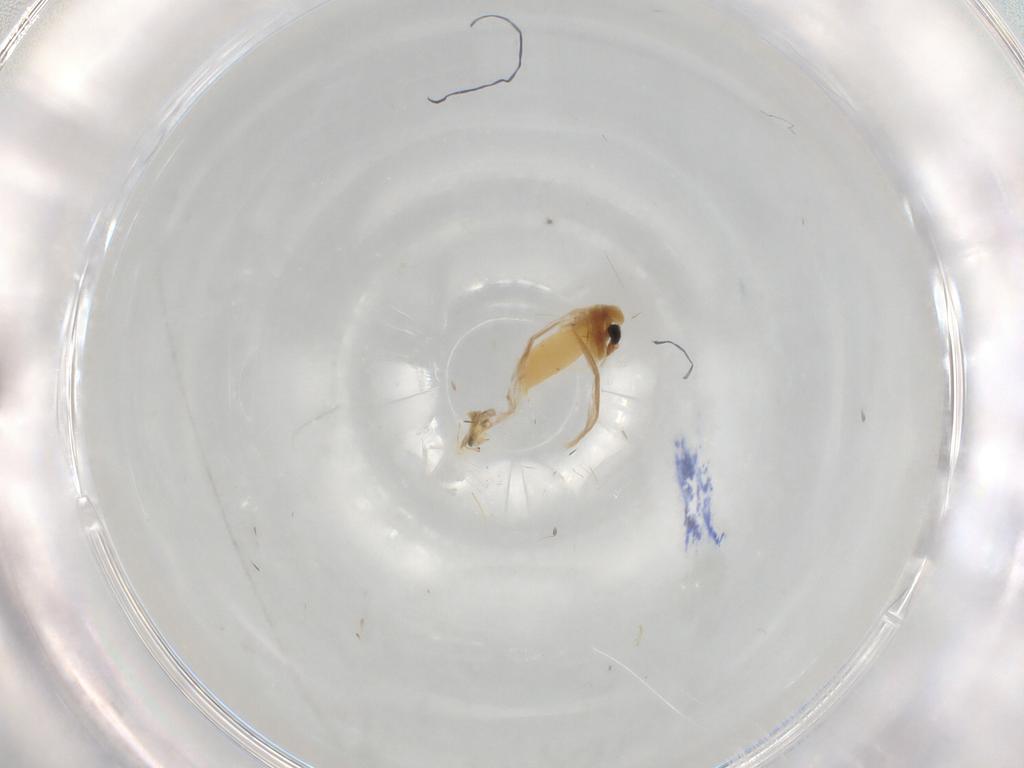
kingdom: Animalia
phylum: Arthropoda
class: Insecta
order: Diptera
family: Chironomidae
